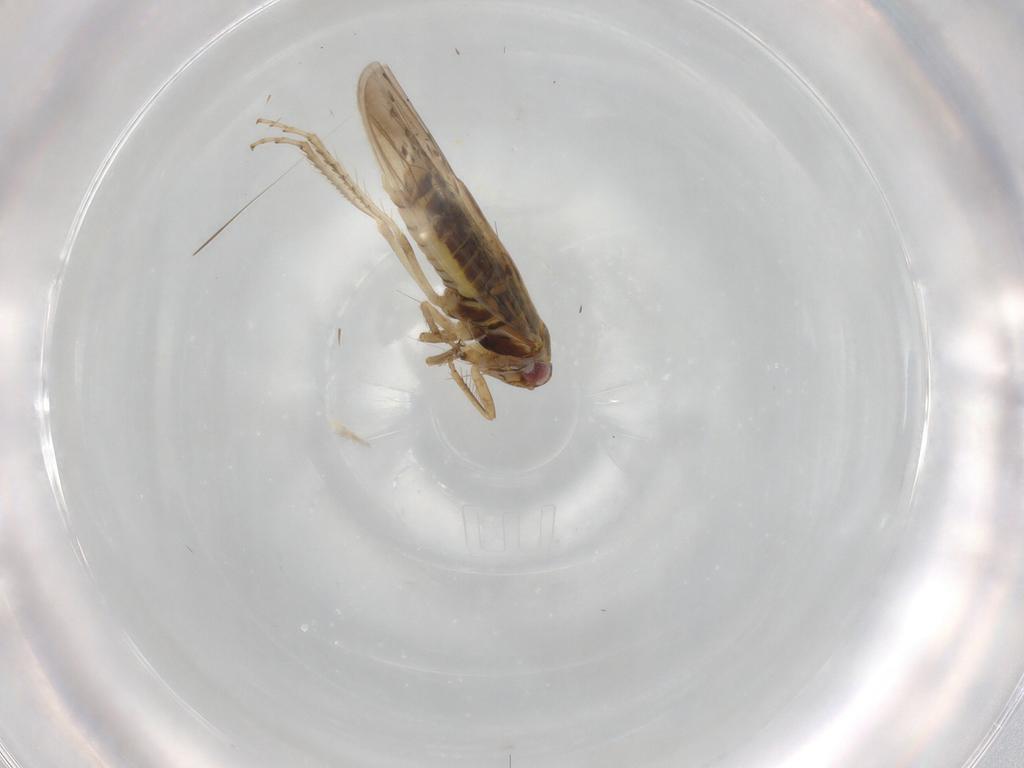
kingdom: Animalia
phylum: Arthropoda
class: Insecta
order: Hemiptera
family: Cicadellidae
